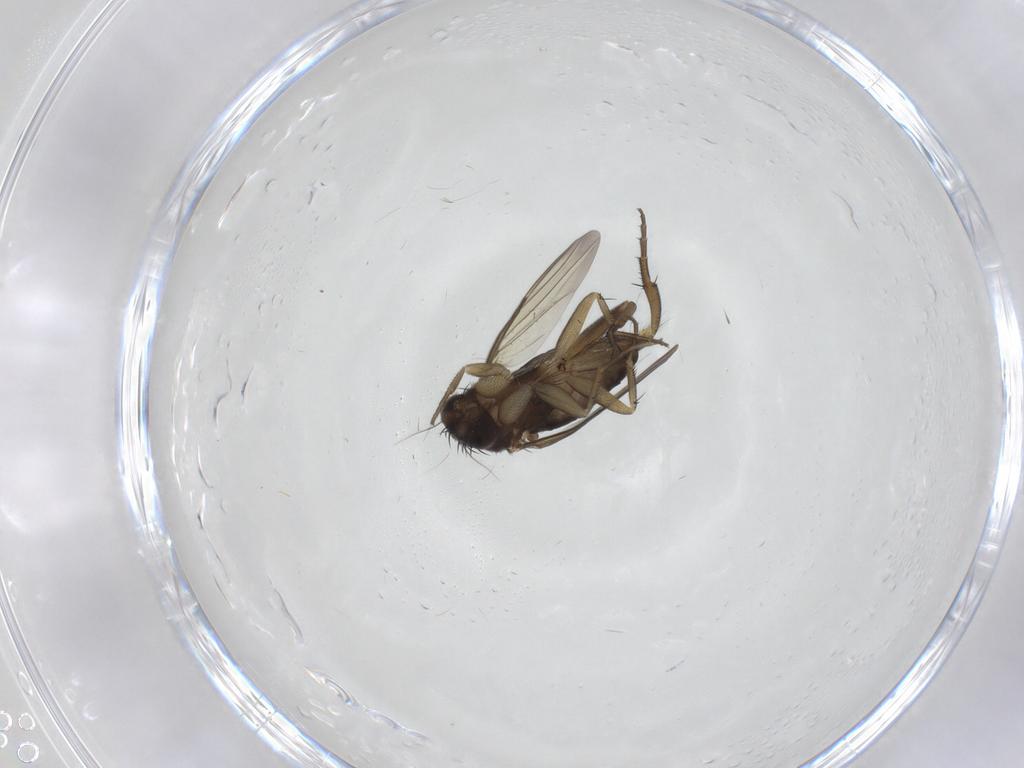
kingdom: Animalia
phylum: Arthropoda
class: Insecta
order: Diptera
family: Phoridae
